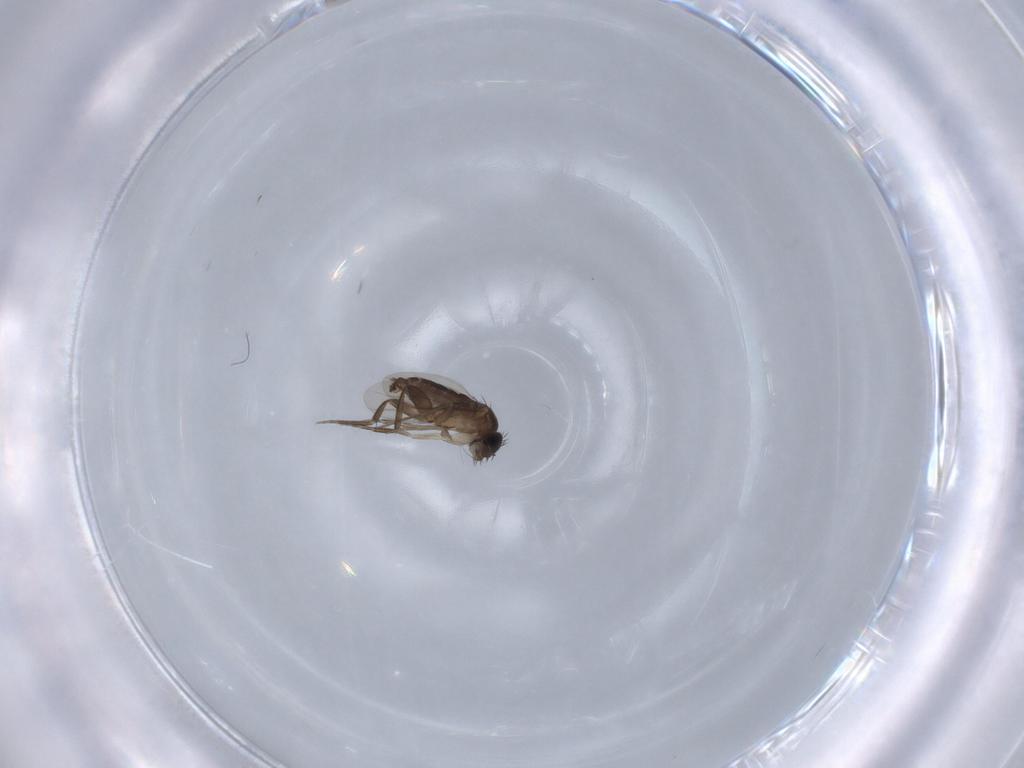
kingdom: Animalia
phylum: Arthropoda
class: Insecta
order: Diptera
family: Phoridae
